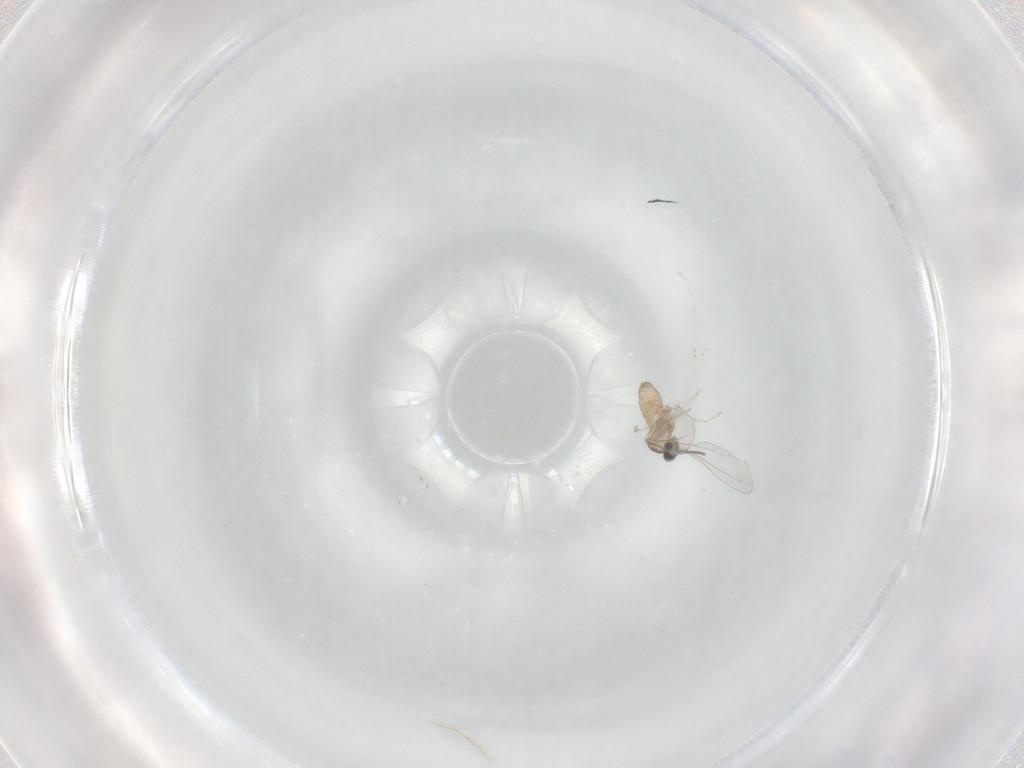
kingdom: Animalia
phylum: Arthropoda
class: Insecta
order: Diptera
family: Cecidomyiidae
